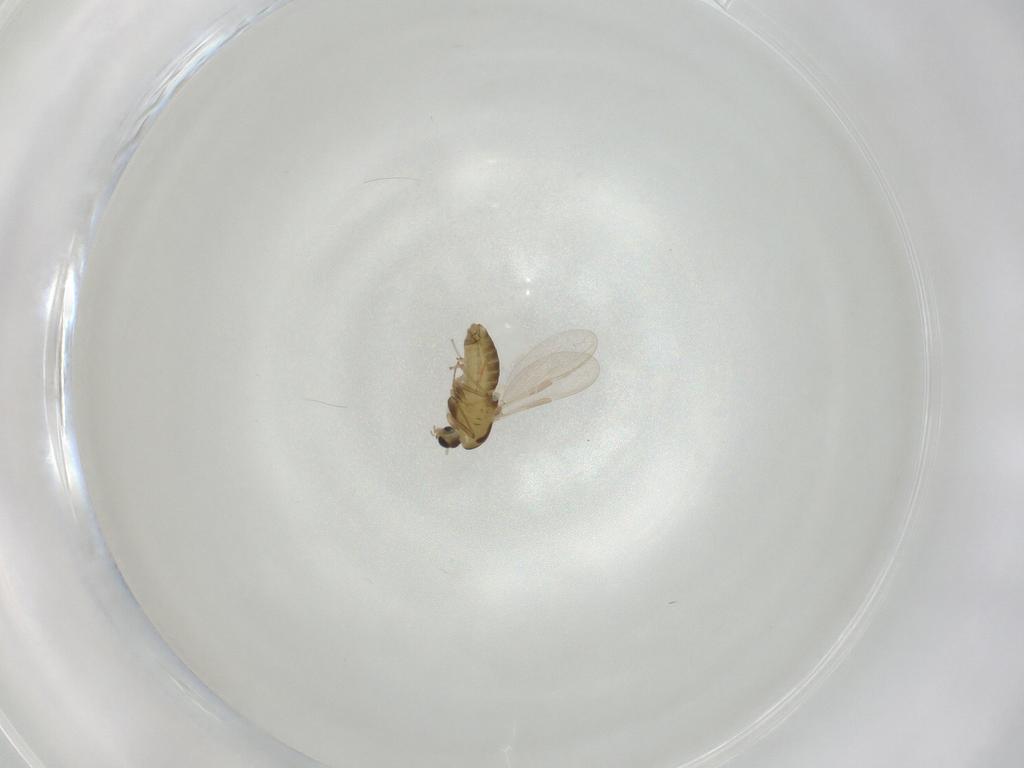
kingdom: Animalia
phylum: Arthropoda
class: Insecta
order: Diptera
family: Chironomidae
